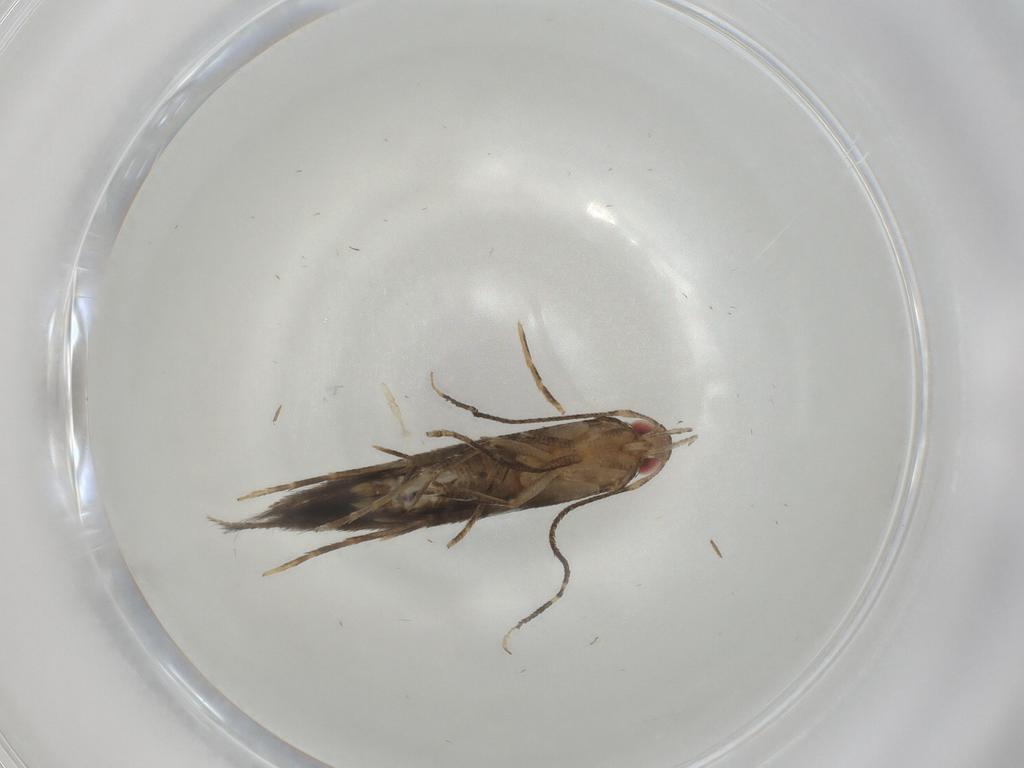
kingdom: Animalia
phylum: Arthropoda
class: Insecta
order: Lepidoptera
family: Cosmopterigidae
